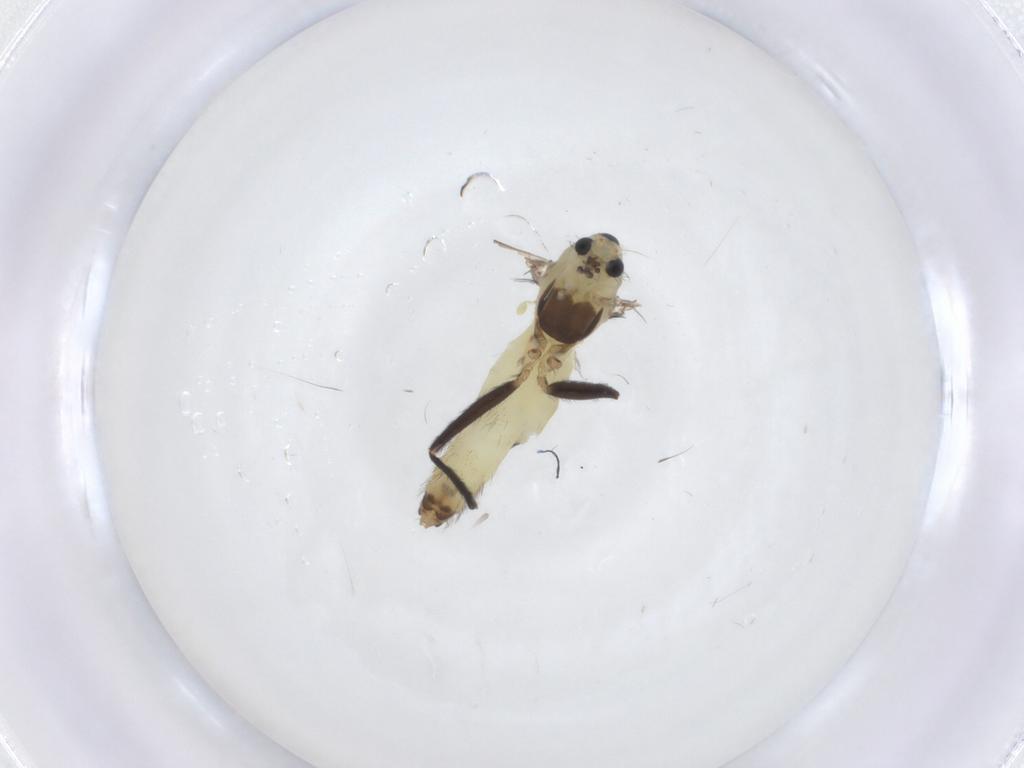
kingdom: Animalia
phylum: Arthropoda
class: Insecta
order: Diptera
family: Chironomidae
